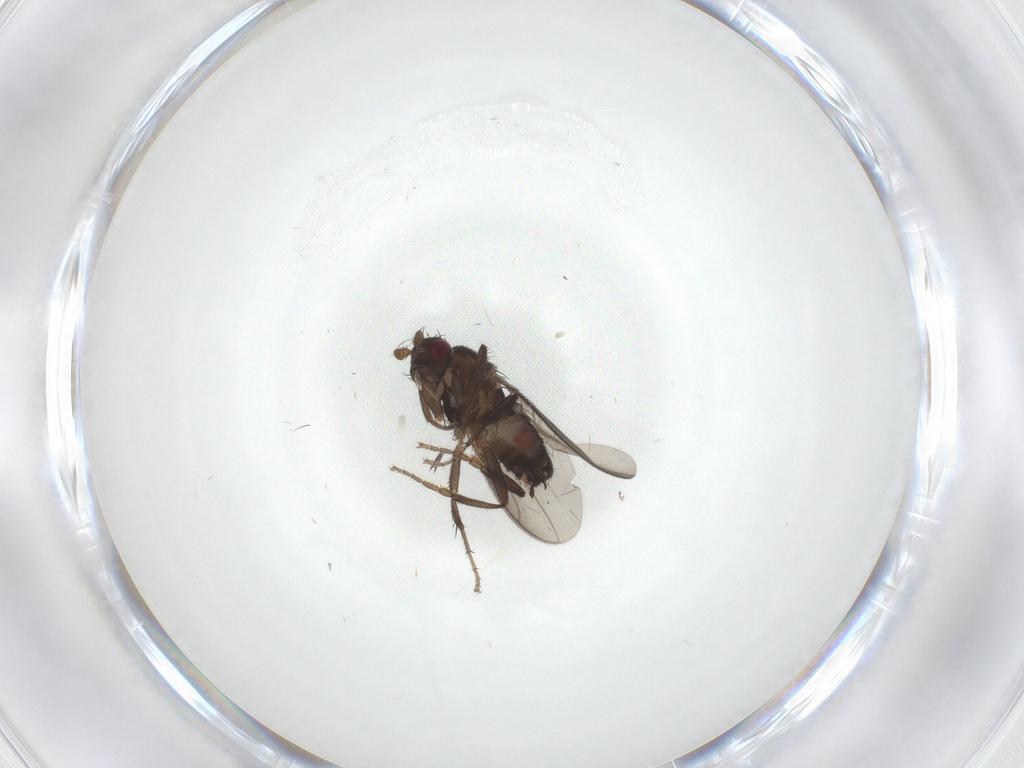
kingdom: Animalia
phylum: Arthropoda
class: Insecta
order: Diptera
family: Sphaeroceridae
